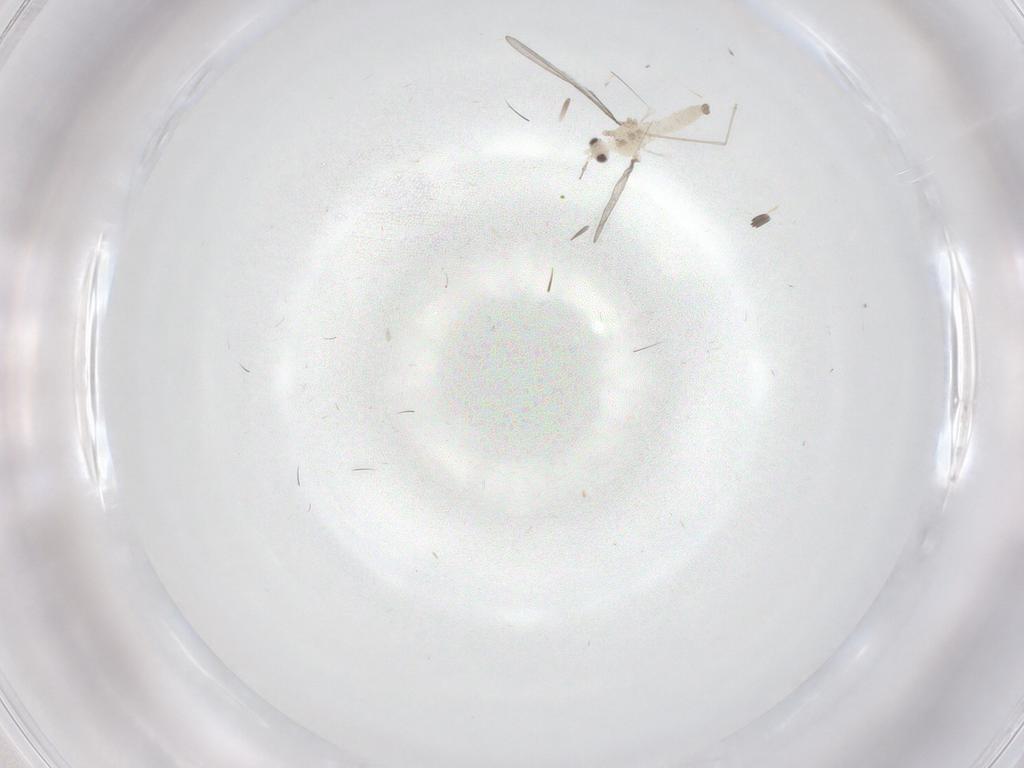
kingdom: Animalia
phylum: Arthropoda
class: Insecta
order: Diptera
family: Phoridae
